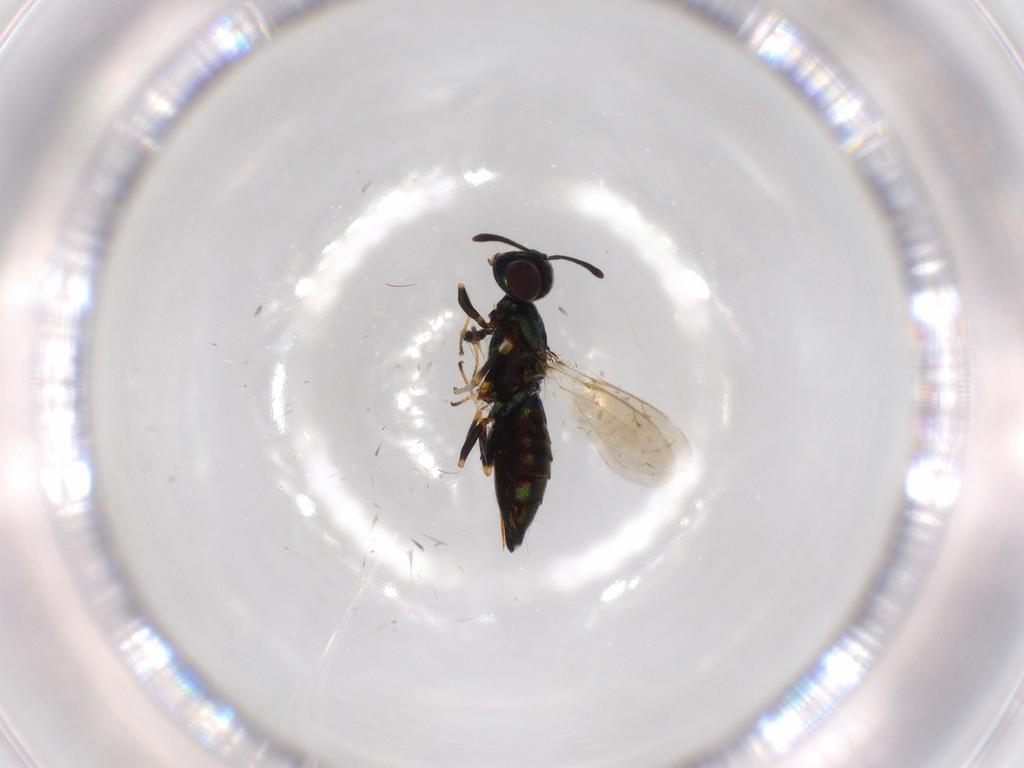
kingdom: Animalia
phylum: Arthropoda
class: Insecta
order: Hymenoptera
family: Eupelmidae
